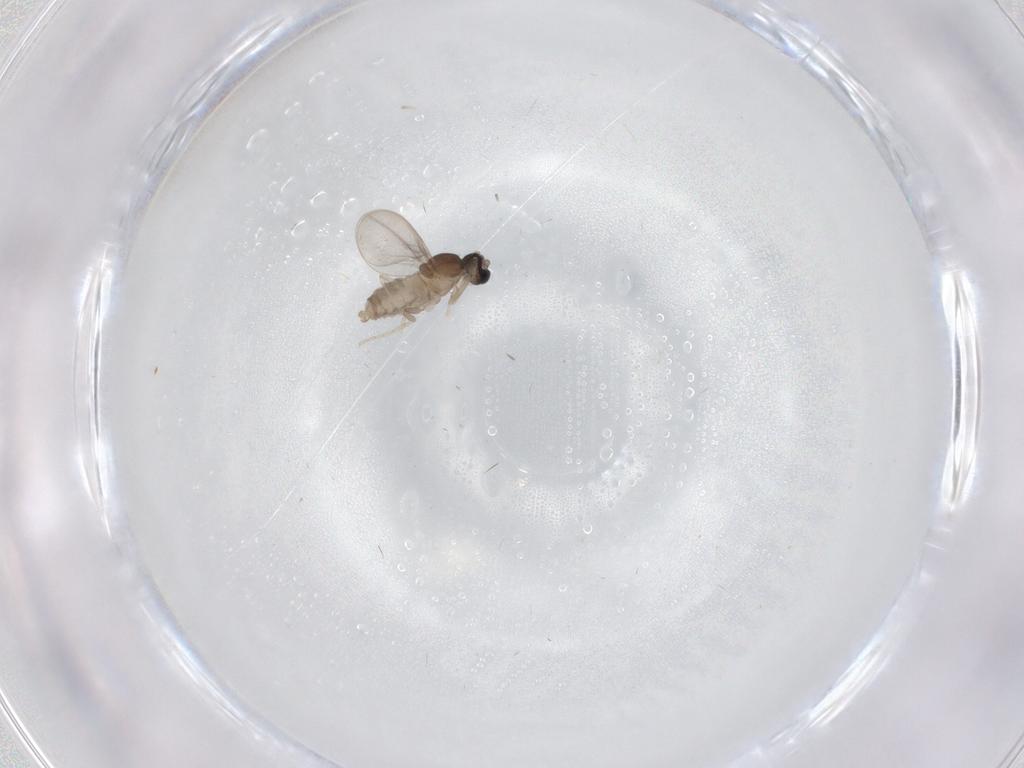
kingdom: Animalia
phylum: Arthropoda
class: Insecta
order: Diptera
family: Cecidomyiidae
